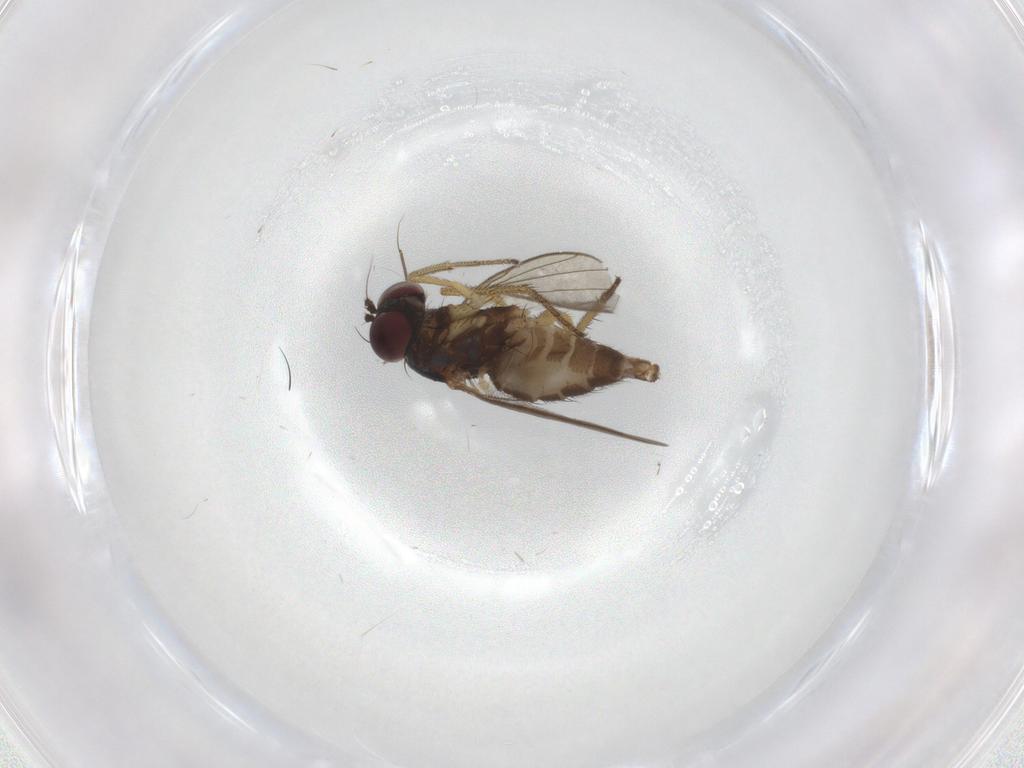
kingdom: Animalia
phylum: Arthropoda
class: Insecta
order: Diptera
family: Dolichopodidae
